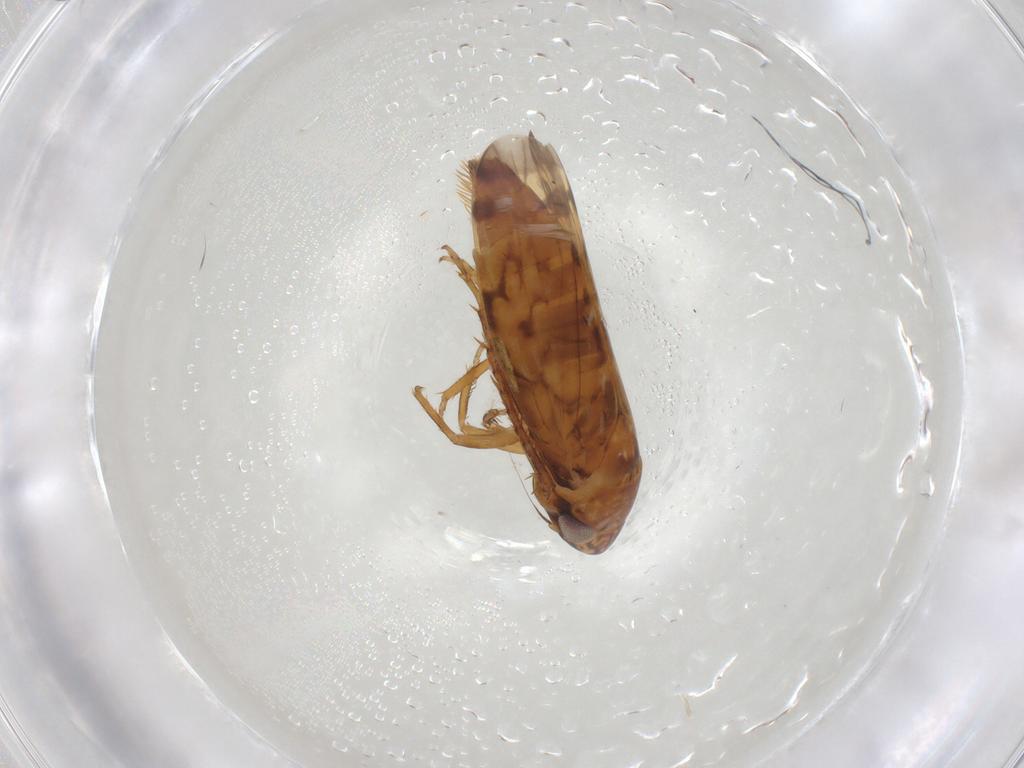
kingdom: Animalia
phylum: Arthropoda
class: Insecta
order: Hemiptera
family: Cicadellidae
